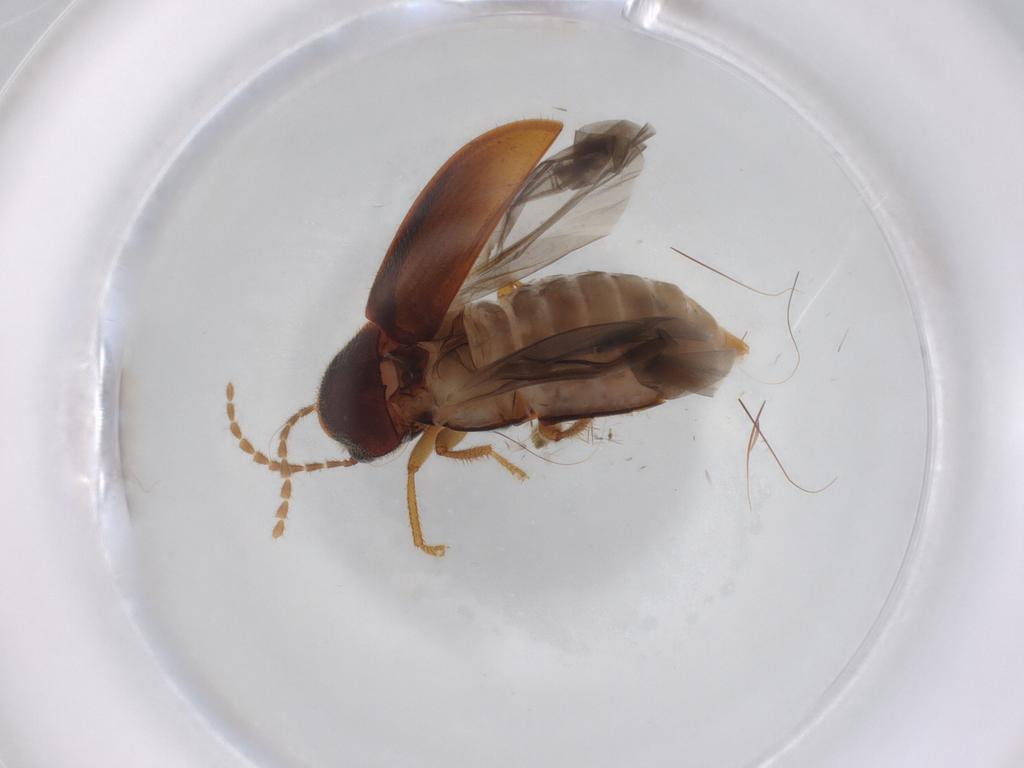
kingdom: Animalia
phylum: Arthropoda
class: Insecta
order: Coleoptera
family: Ptilodactylidae
